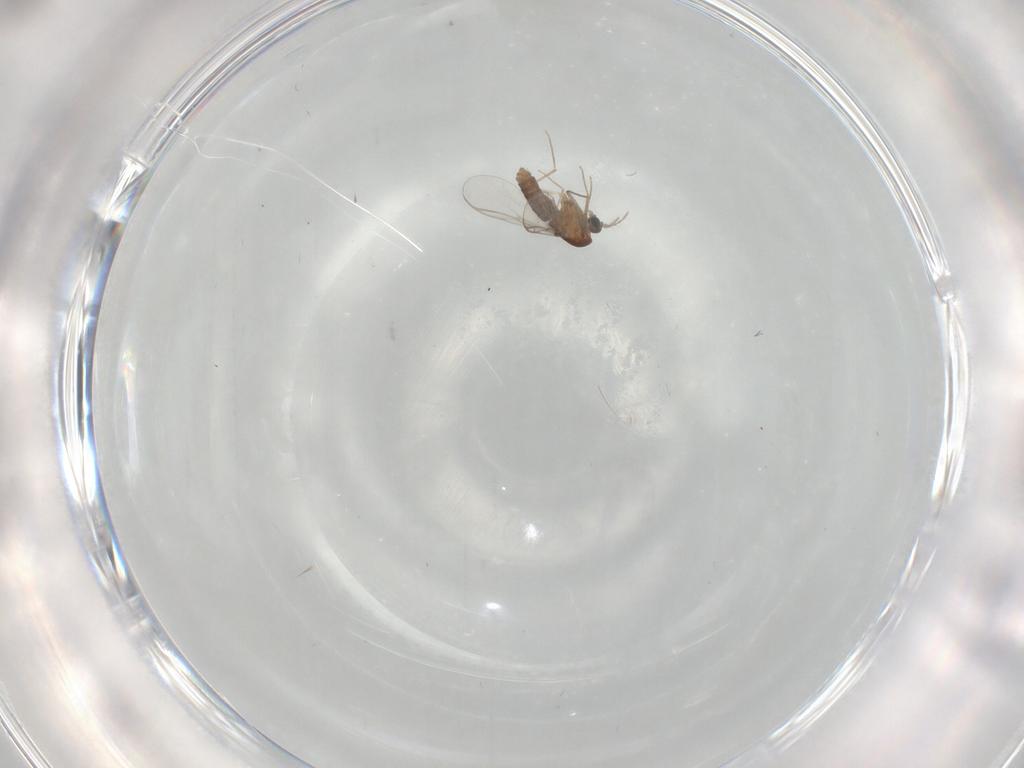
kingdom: Animalia
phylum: Arthropoda
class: Insecta
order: Diptera
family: Chironomidae
